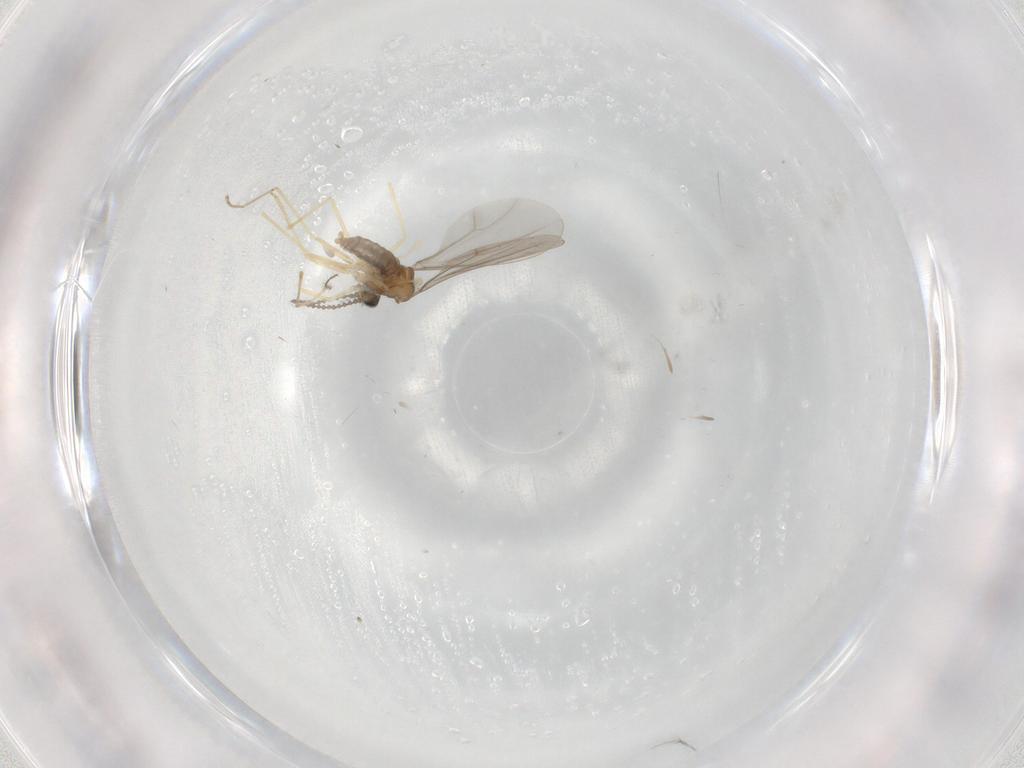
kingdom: Animalia
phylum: Arthropoda
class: Insecta
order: Diptera
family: Cecidomyiidae
